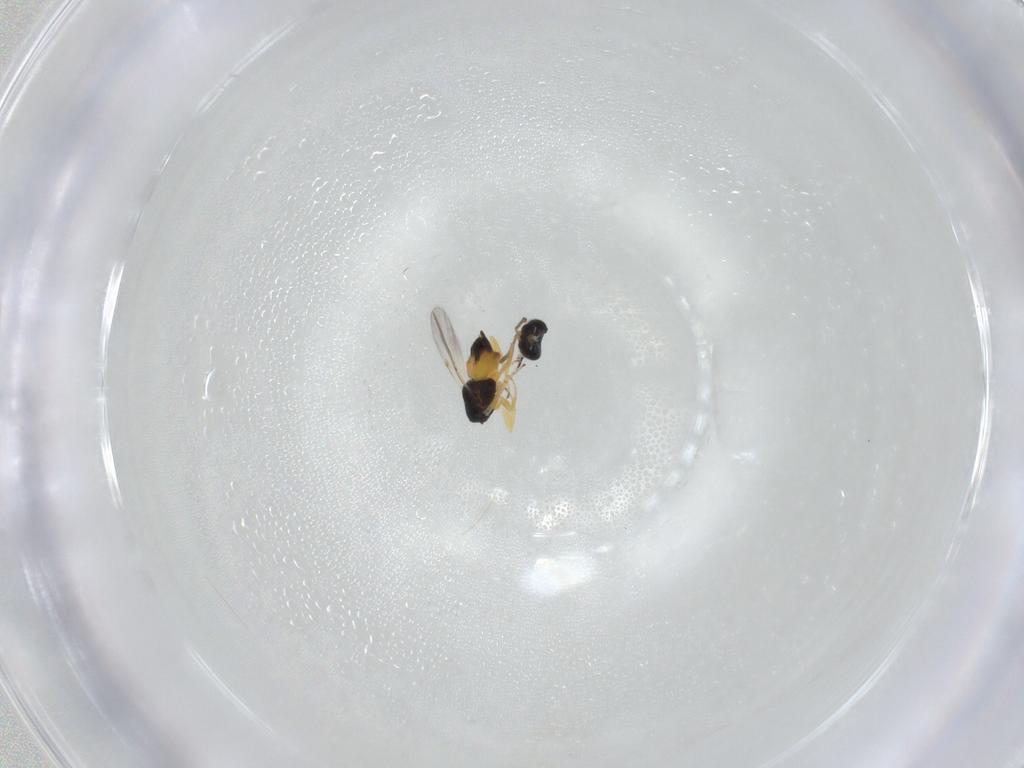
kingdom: Animalia
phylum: Arthropoda
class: Insecta
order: Hymenoptera
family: Encyrtidae
